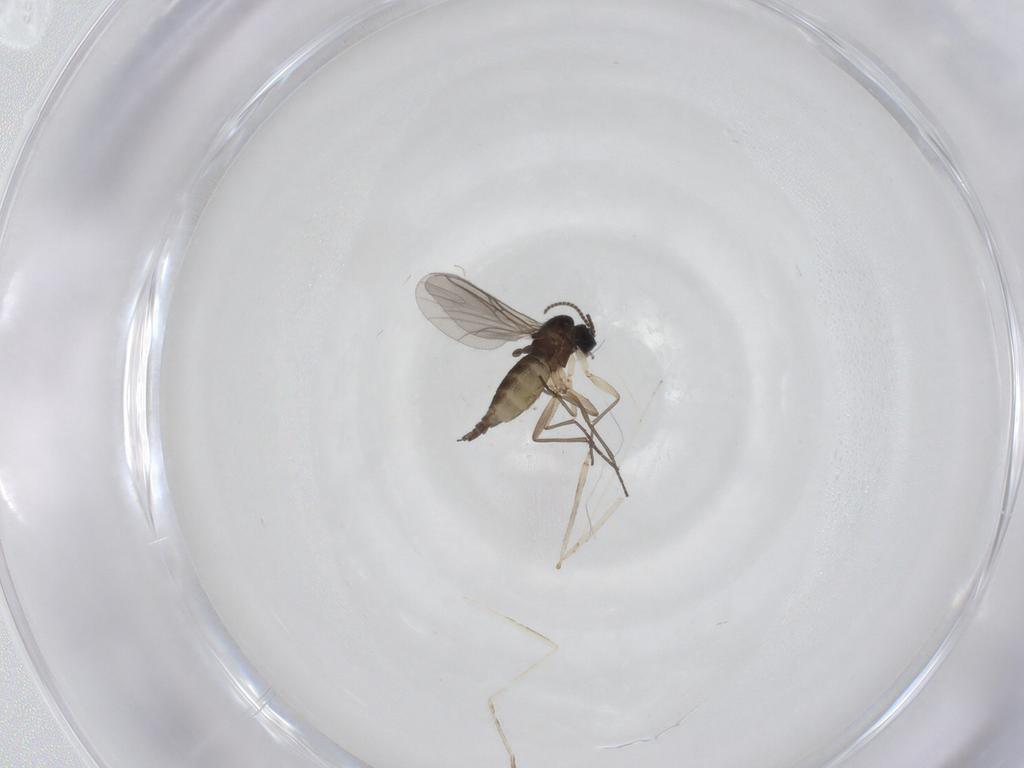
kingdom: Animalia
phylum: Arthropoda
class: Insecta
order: Diptera
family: Sciaridae
